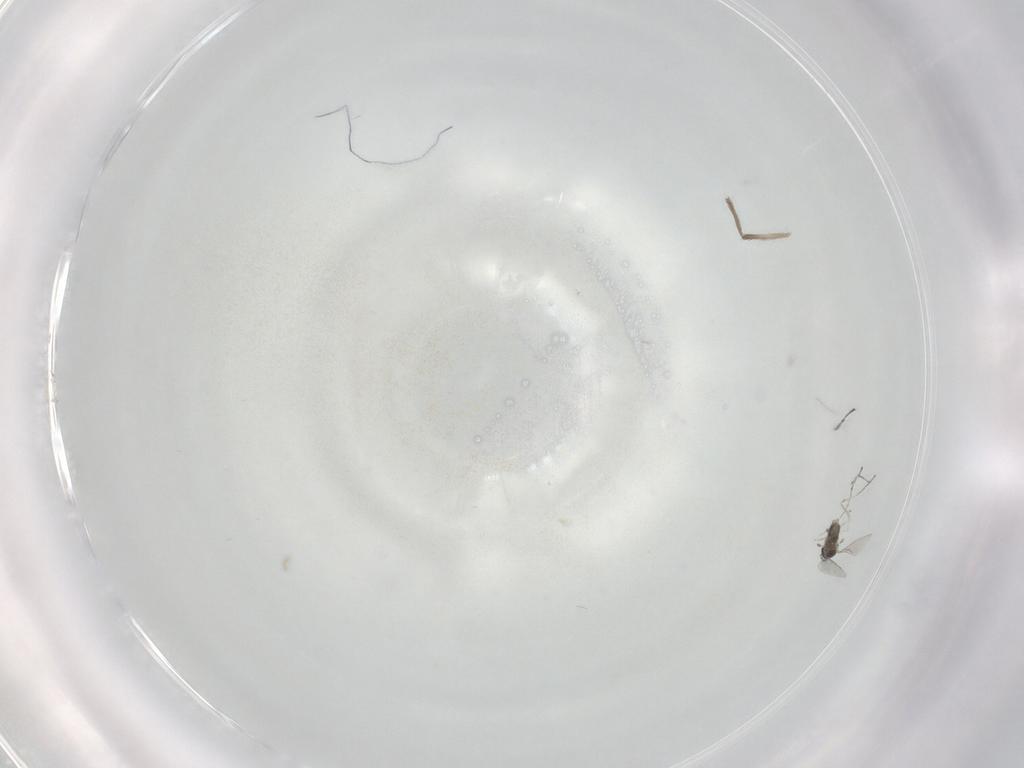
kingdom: Animalia
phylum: Arthropoda
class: Insecta
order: Diptera
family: Cecidomyiidae
